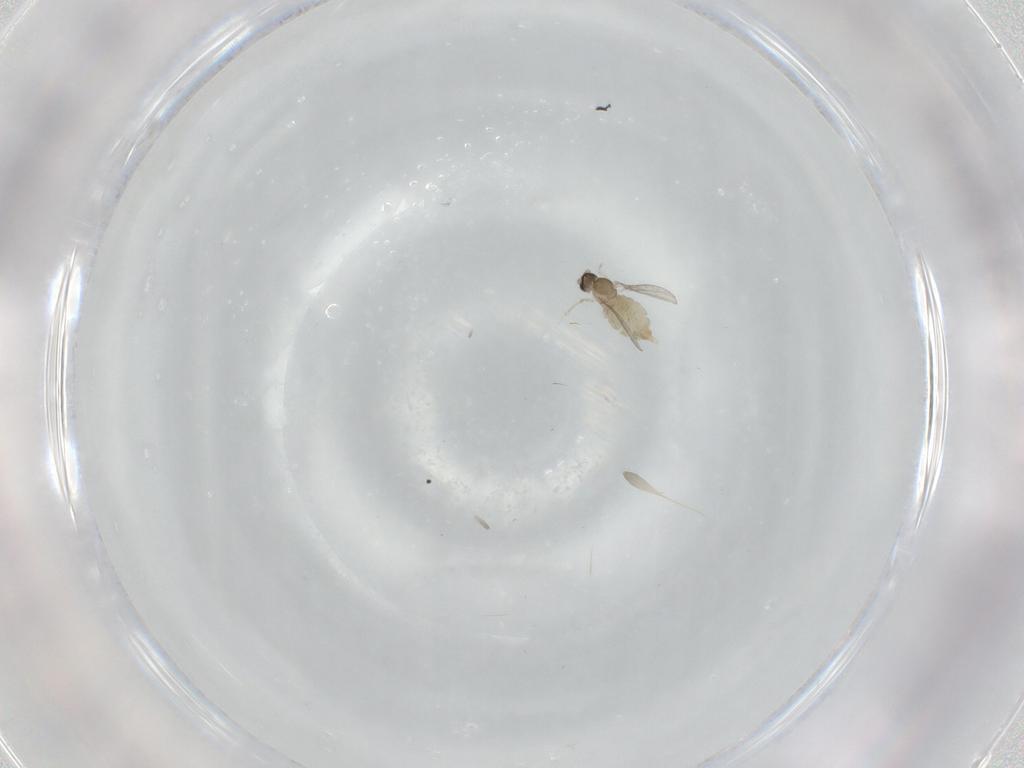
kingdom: Animalia
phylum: Arthropoda
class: Insecta
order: Diptera
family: Cecidomyiidae
